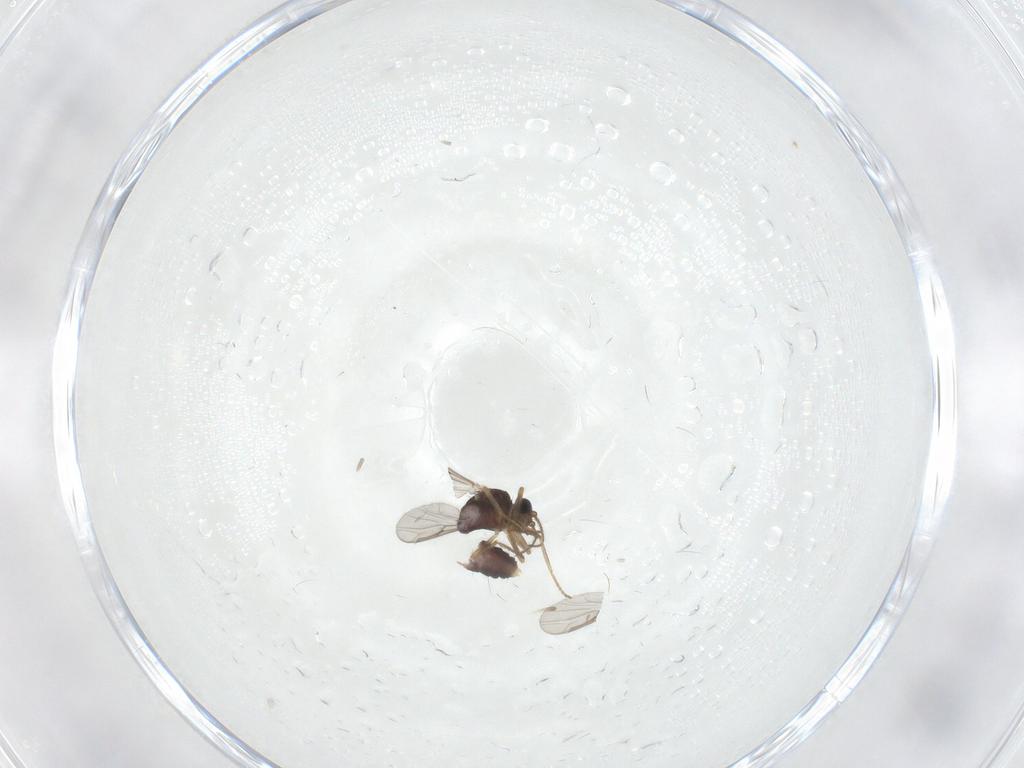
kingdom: Animalia
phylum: Arthropoda
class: Insecta
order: Diptera
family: Ceratopogonidae
